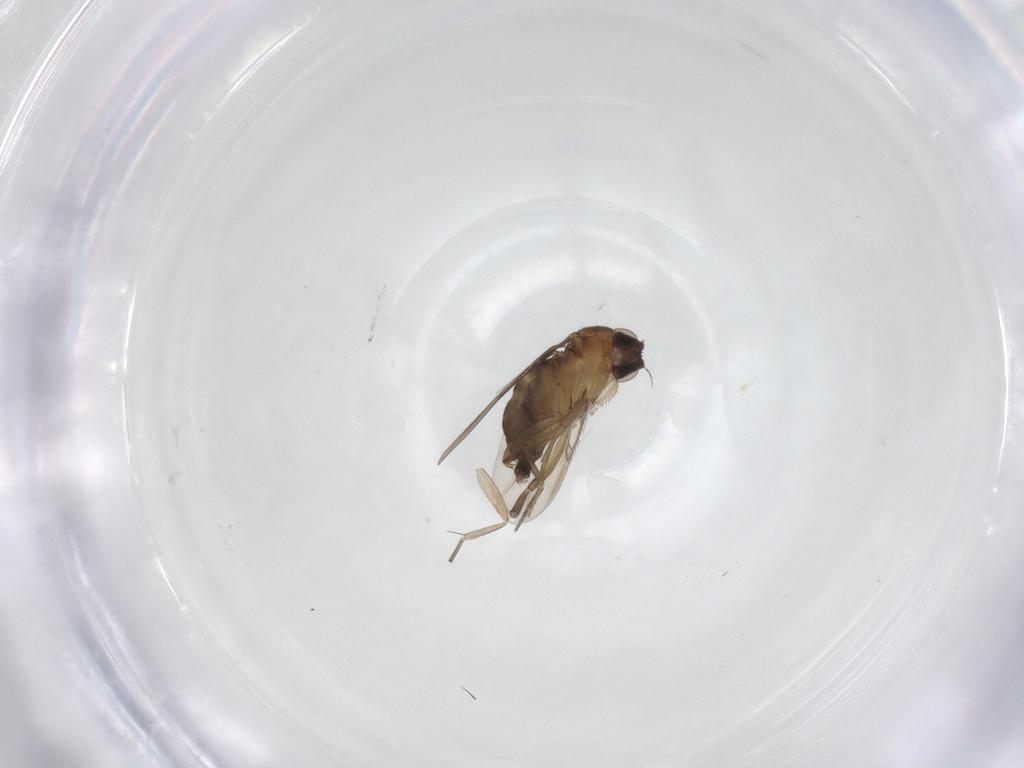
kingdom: Animalia
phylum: Arthropoda
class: Insecta
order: Diptera
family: Phoridae
